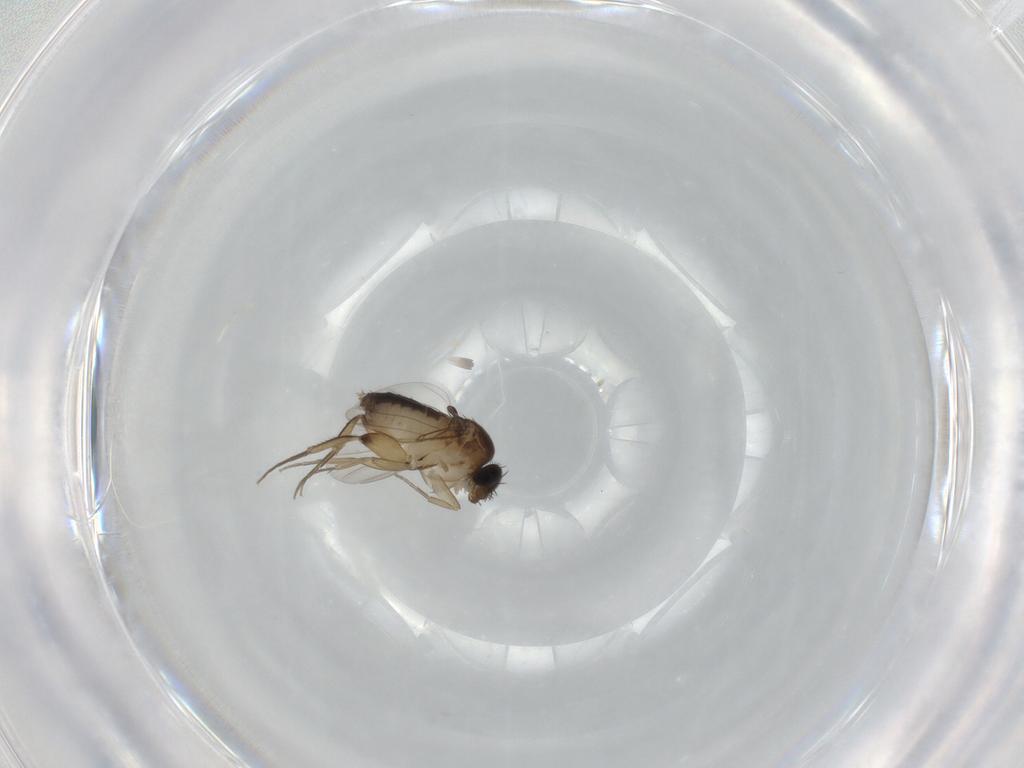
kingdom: Animalia
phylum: Arthropoda
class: Insecta
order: Diptera
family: Phoridae
